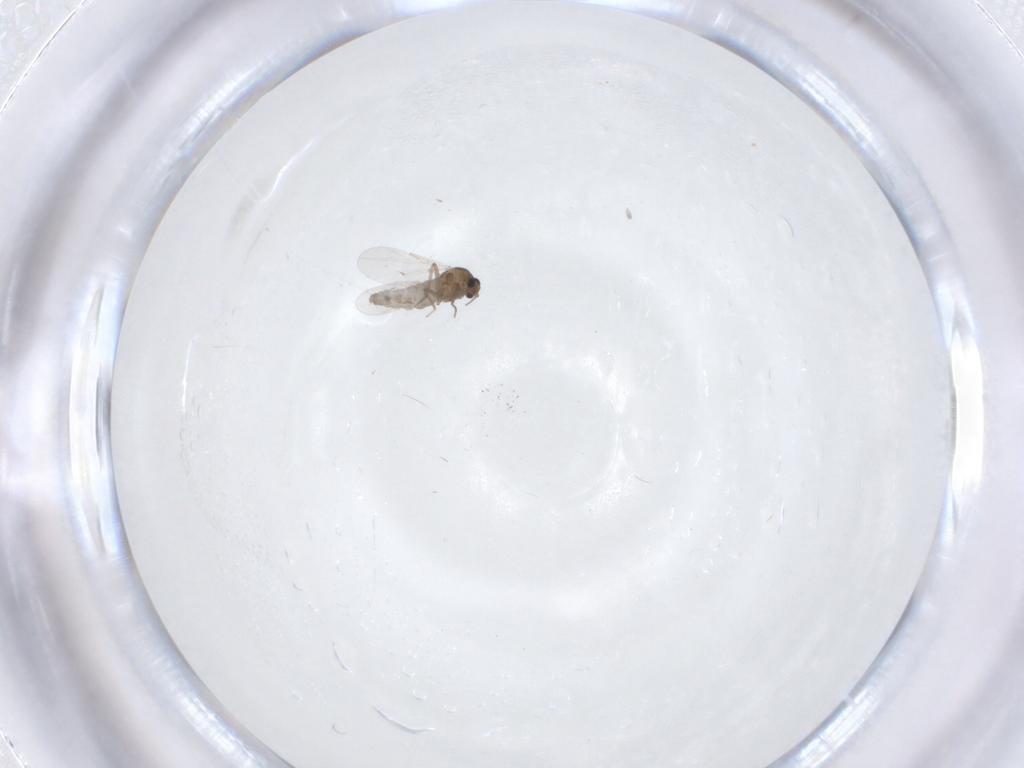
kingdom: Animalia
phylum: Arthropoda
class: Insecta
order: Diptera
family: Ceratopogonidae
